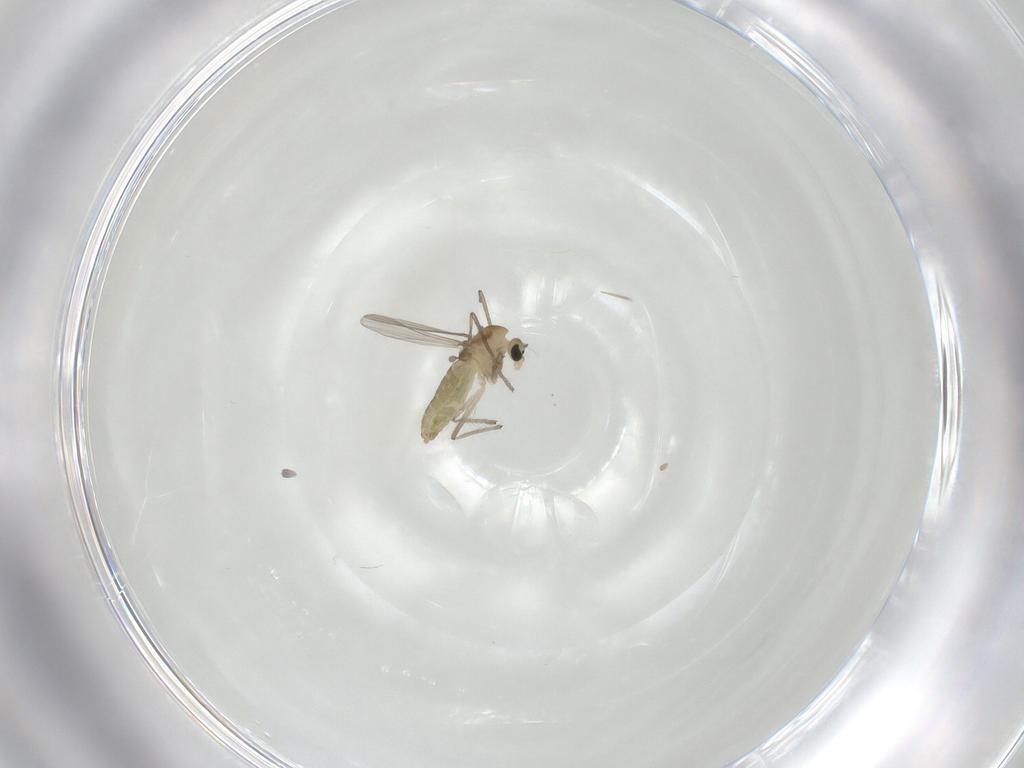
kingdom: Animalia
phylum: Arthropoda
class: Insecta
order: Diptera
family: Chironomidae
